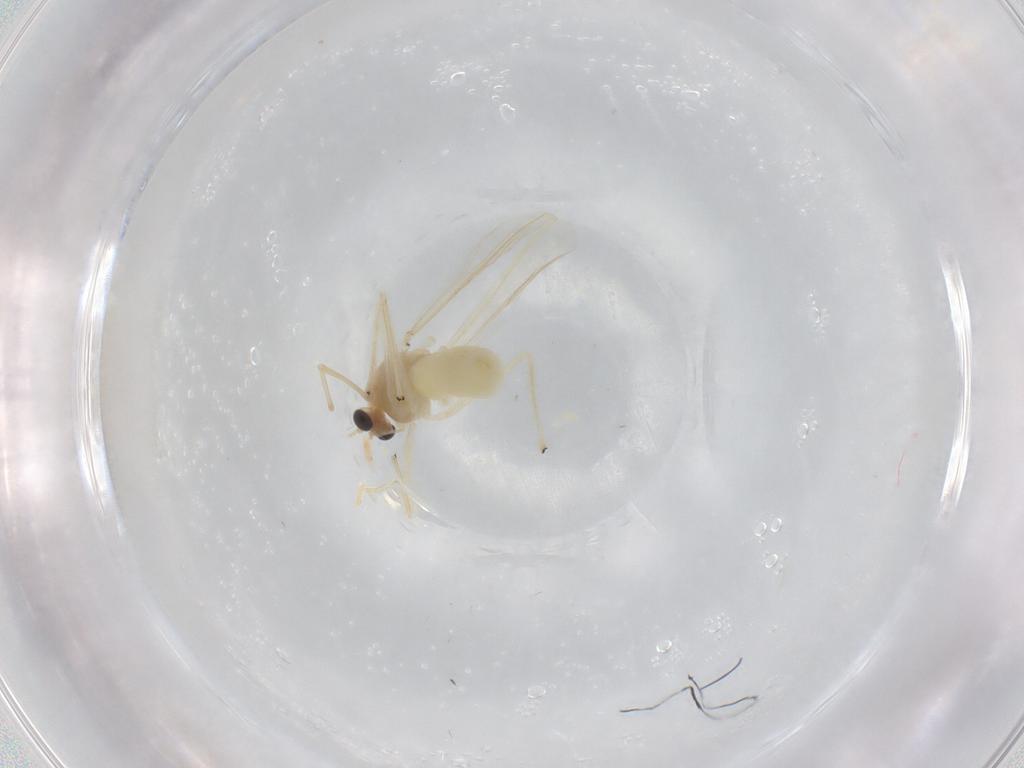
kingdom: Animalia
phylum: Arthropoda
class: Insecta
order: Diptera
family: Chironomidae
